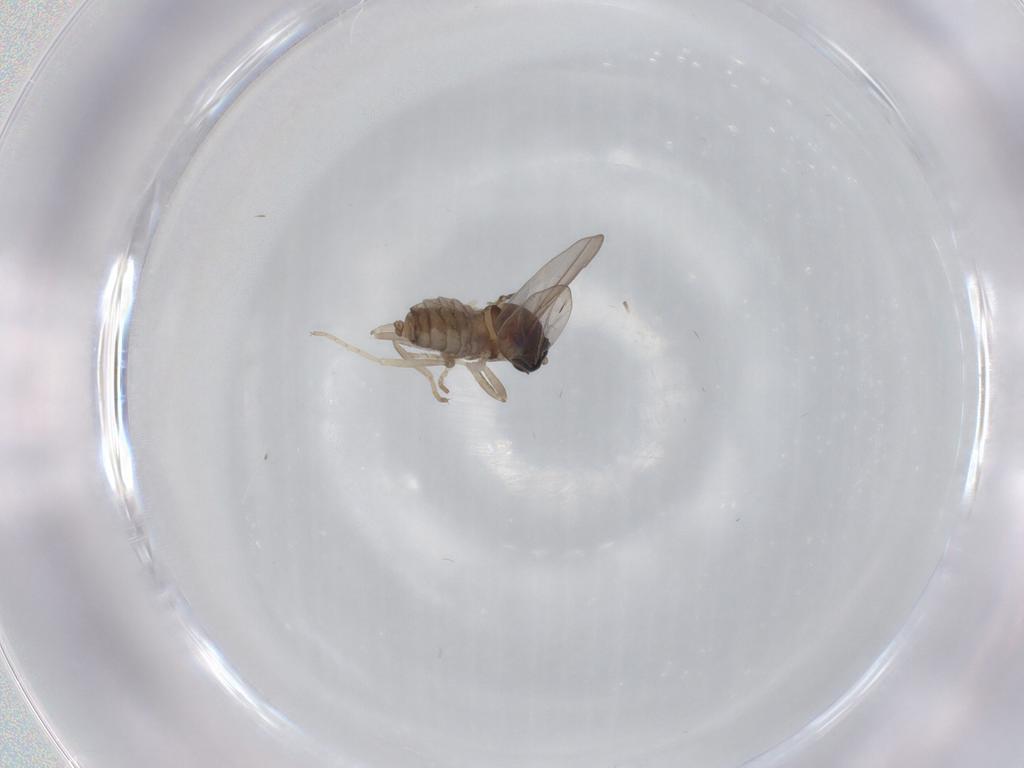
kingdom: Animalia
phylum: Arthropoda
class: Insecta
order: Diptera
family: Cecidomyiidae
